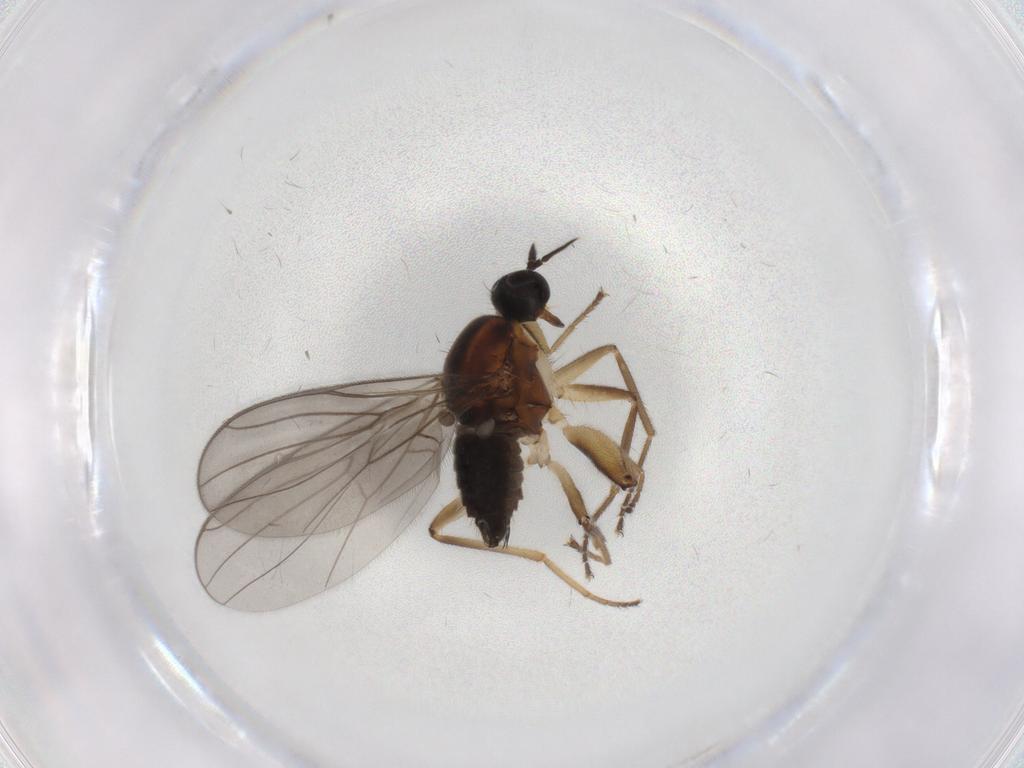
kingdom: Animalia
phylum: Arthropoda
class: Insecta
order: Diptera
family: Hybotidae
